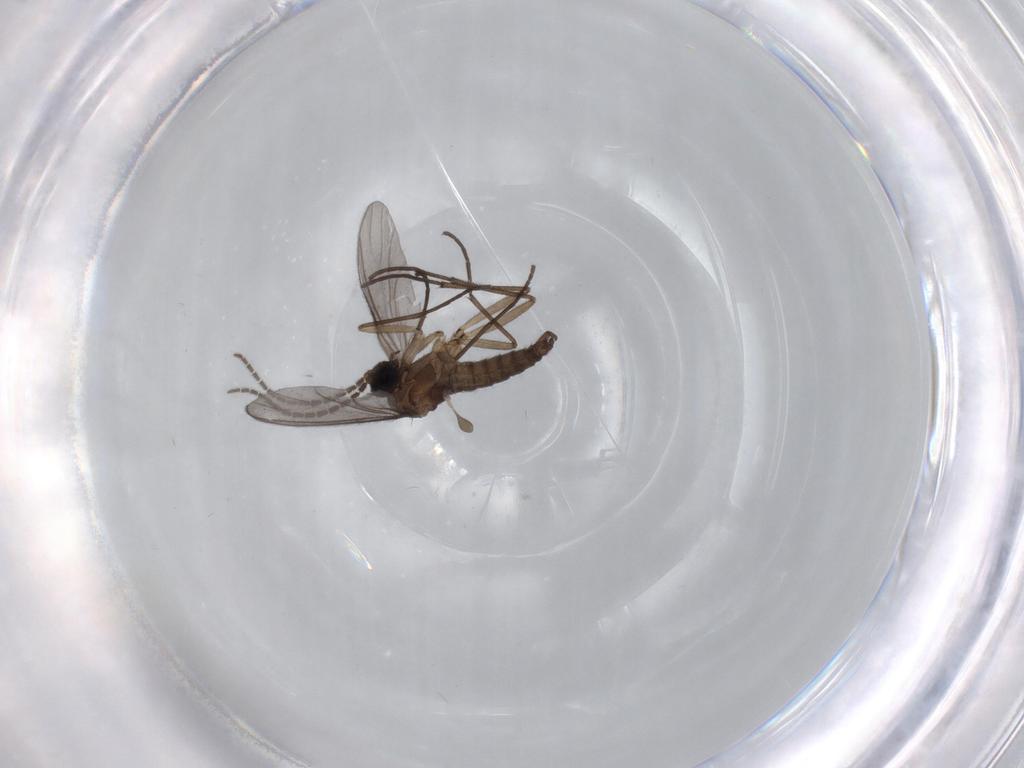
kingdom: Animalia
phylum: Arthropoda
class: Insecta
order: Diptera
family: Sciaridae
